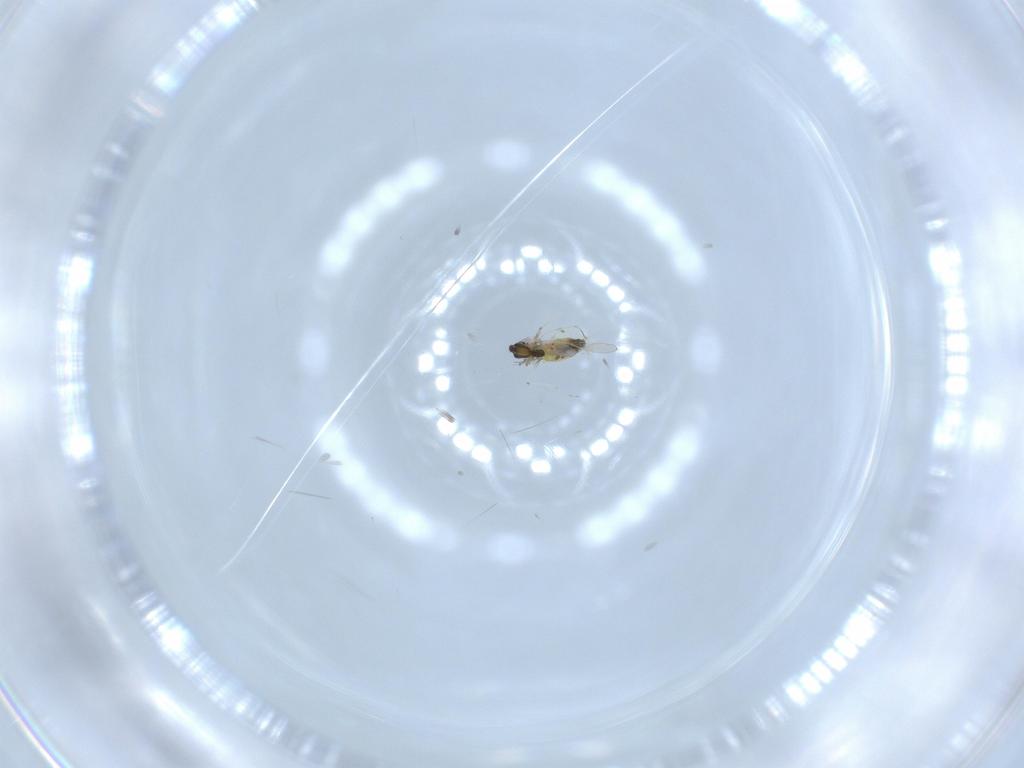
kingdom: Animalia
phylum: Arthropoda
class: Insecta
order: Diptera
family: Chironomidae
